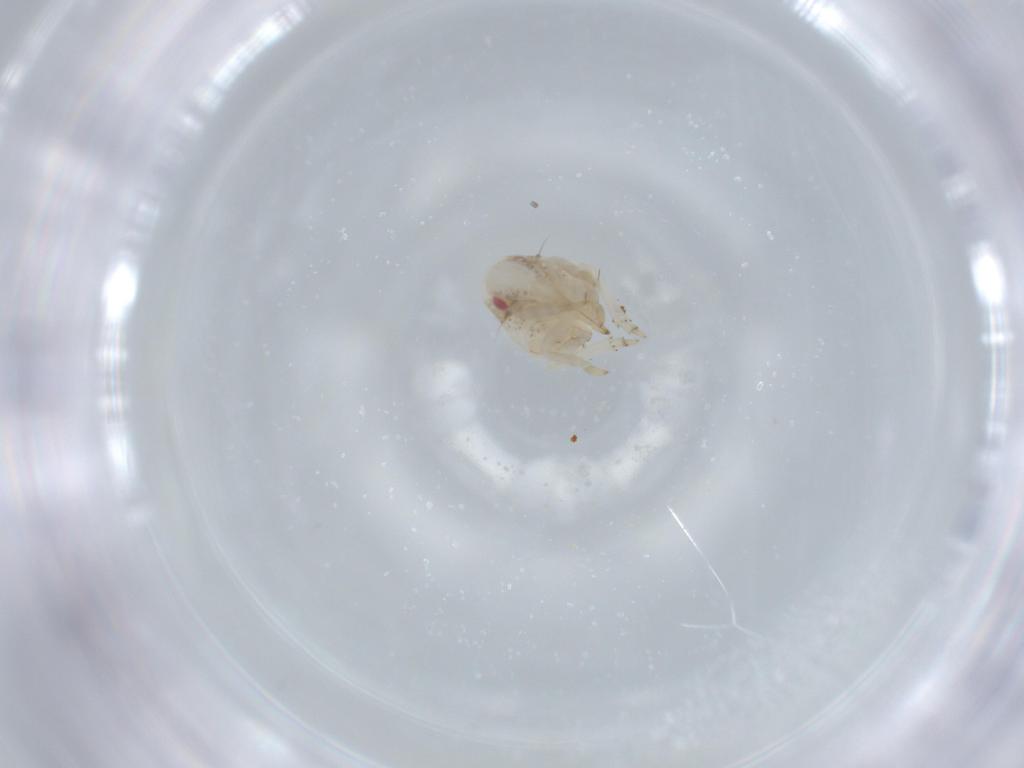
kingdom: Animalia
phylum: Arthropoda
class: Insecta
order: Hemiptera
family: Acanaloniidae
